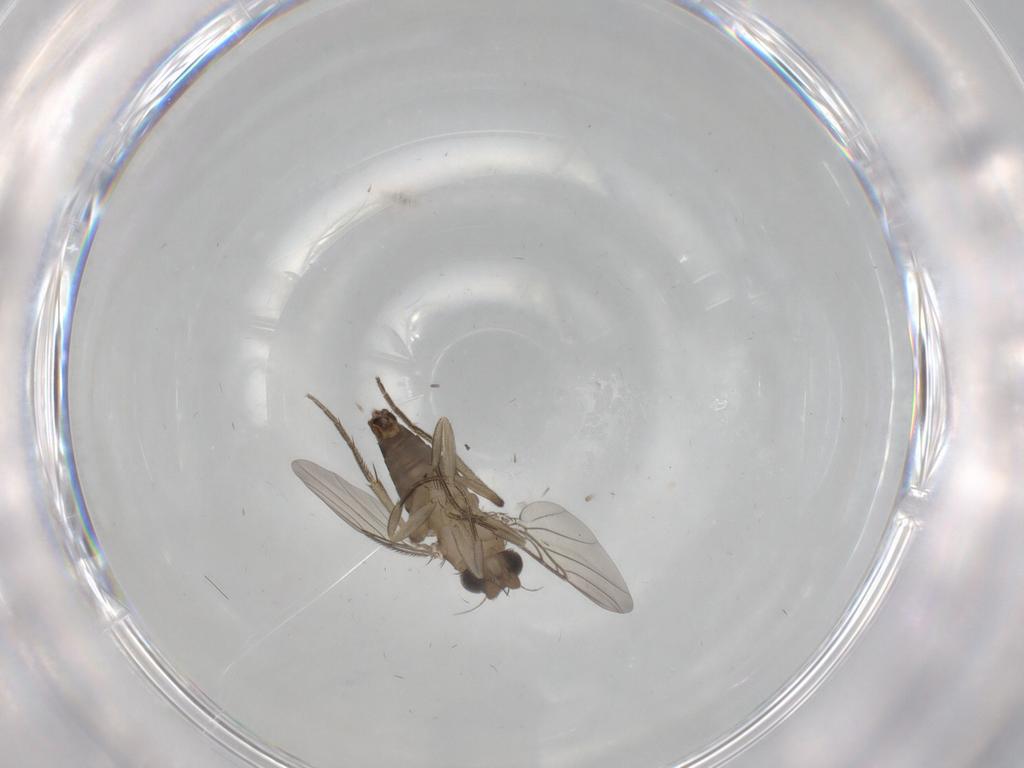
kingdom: Animalia
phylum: Arthropoda
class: Insecta
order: Diptera
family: Phoridae
